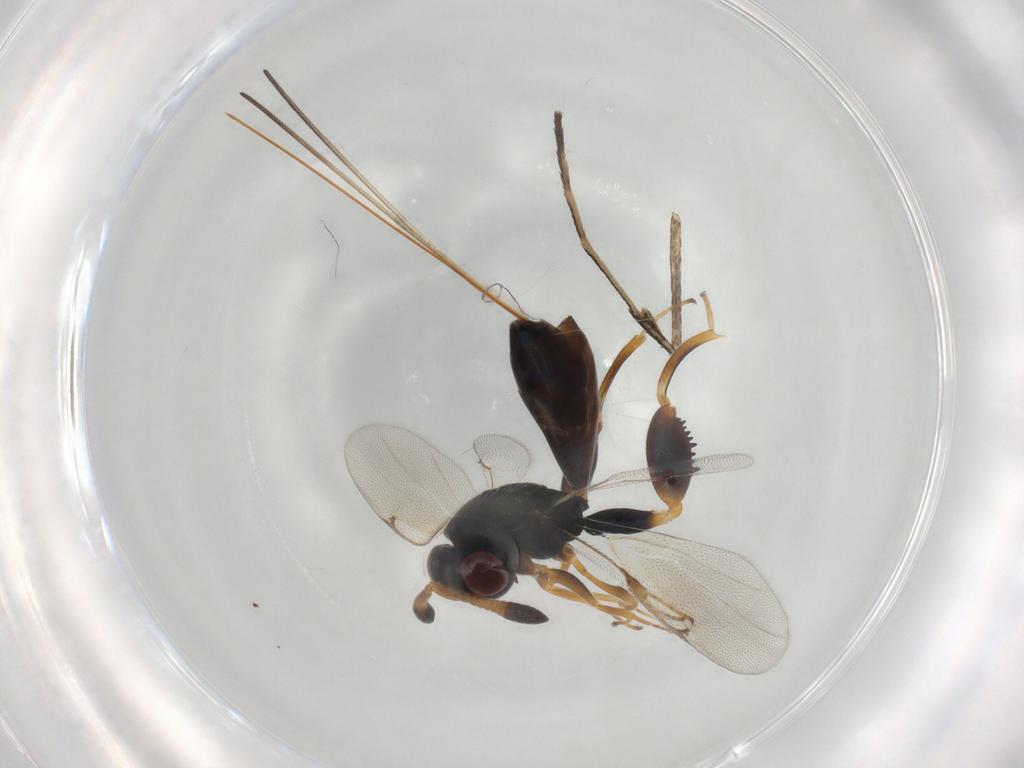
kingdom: Animalia
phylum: Arthropoda
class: Insecta
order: Hymenoptera
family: Torymidae
